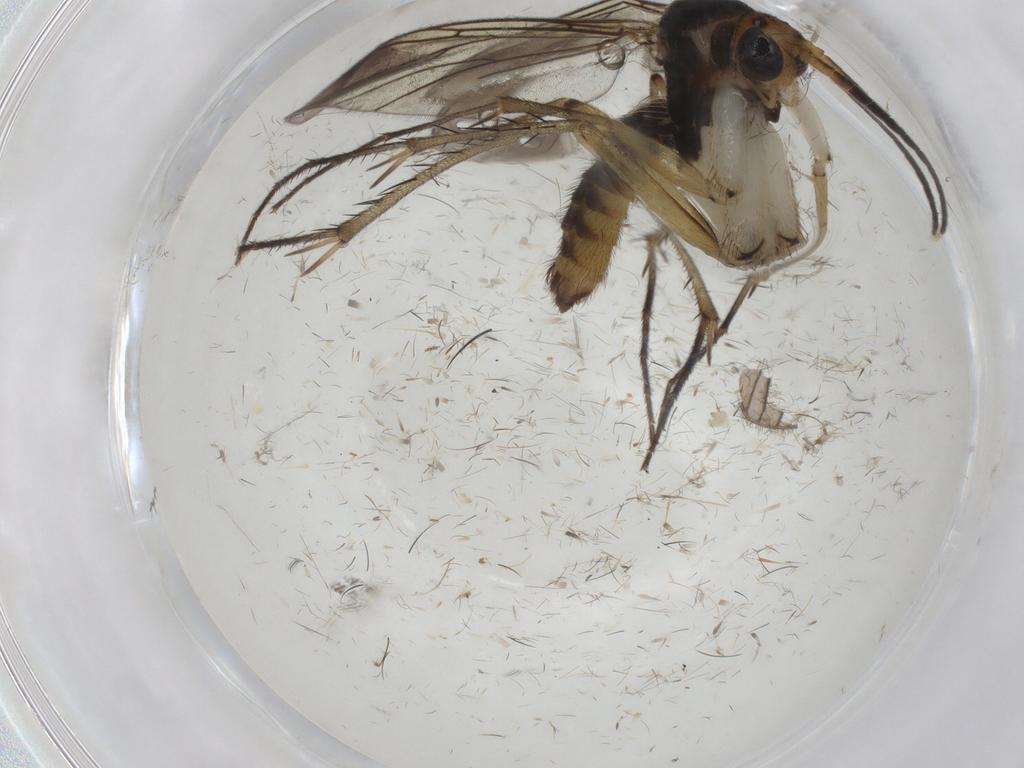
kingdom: Animalia
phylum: Arthropoda
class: Insecta
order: Diptera
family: Mycetophilidae
